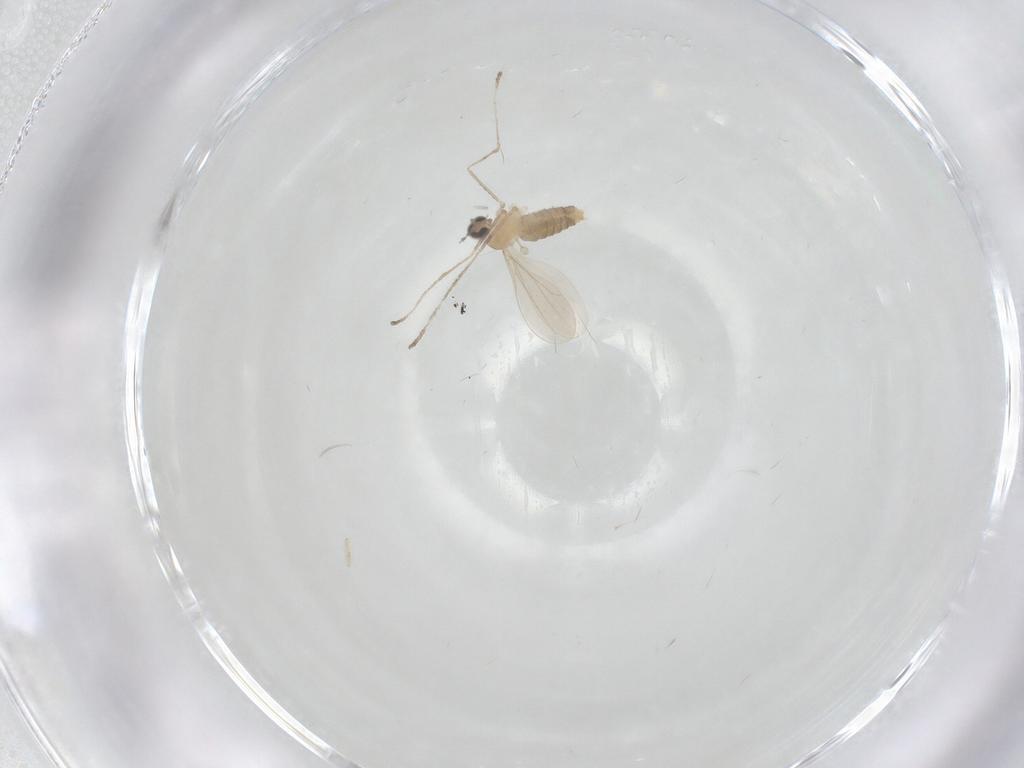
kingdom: Animalia
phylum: Arthropoda
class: Insecta
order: Diptera
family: Cecidomyiidae
